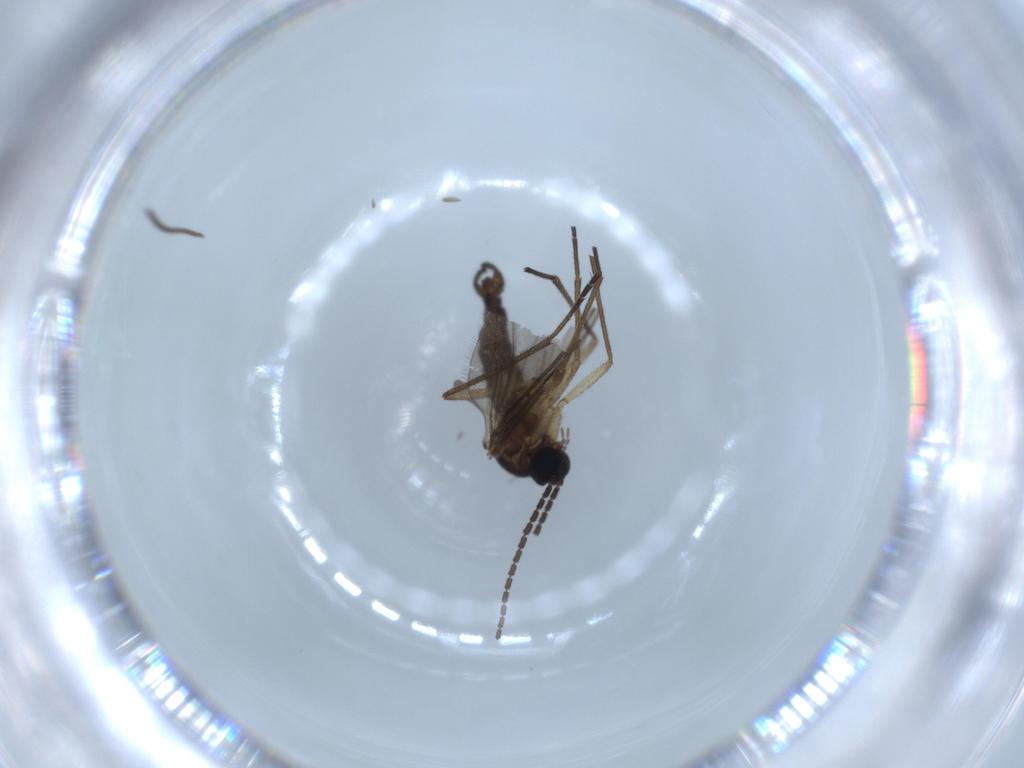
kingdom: Animalia
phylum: Arthropoda
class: Insecta
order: Diptera
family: Sciaridae
